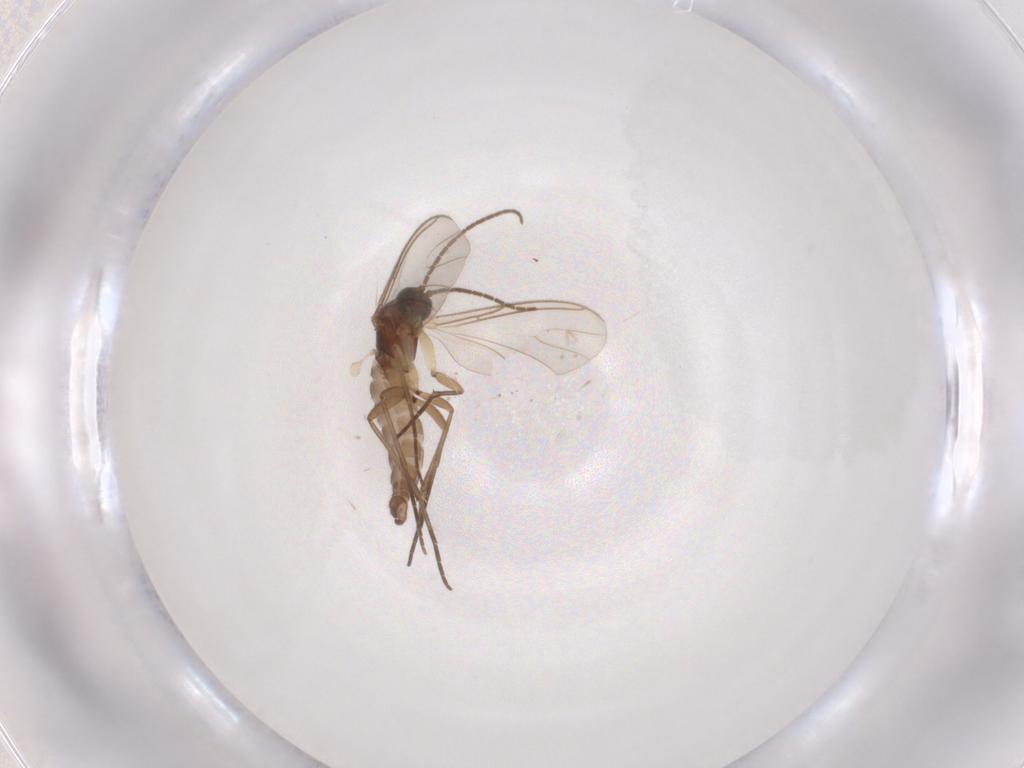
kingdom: Animalia
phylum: Arthropoda
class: Insecta
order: Diptera
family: Sciaridae
